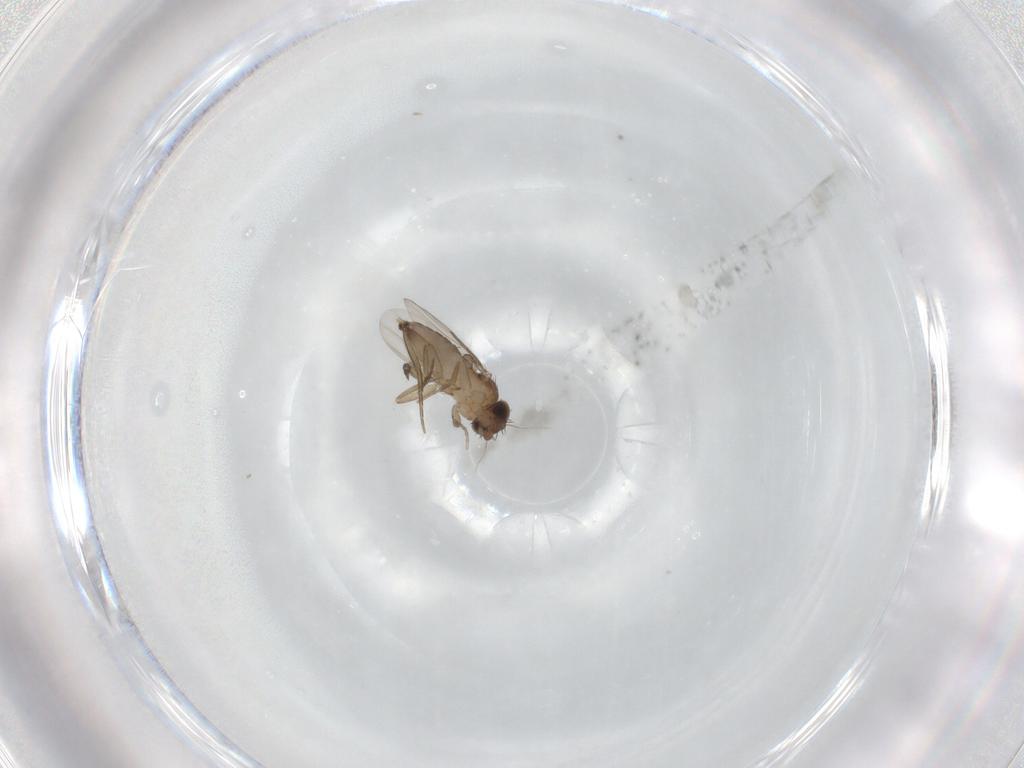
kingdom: Animalia
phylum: Arthropoda
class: Insecta
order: Diptera
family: Phoridae
